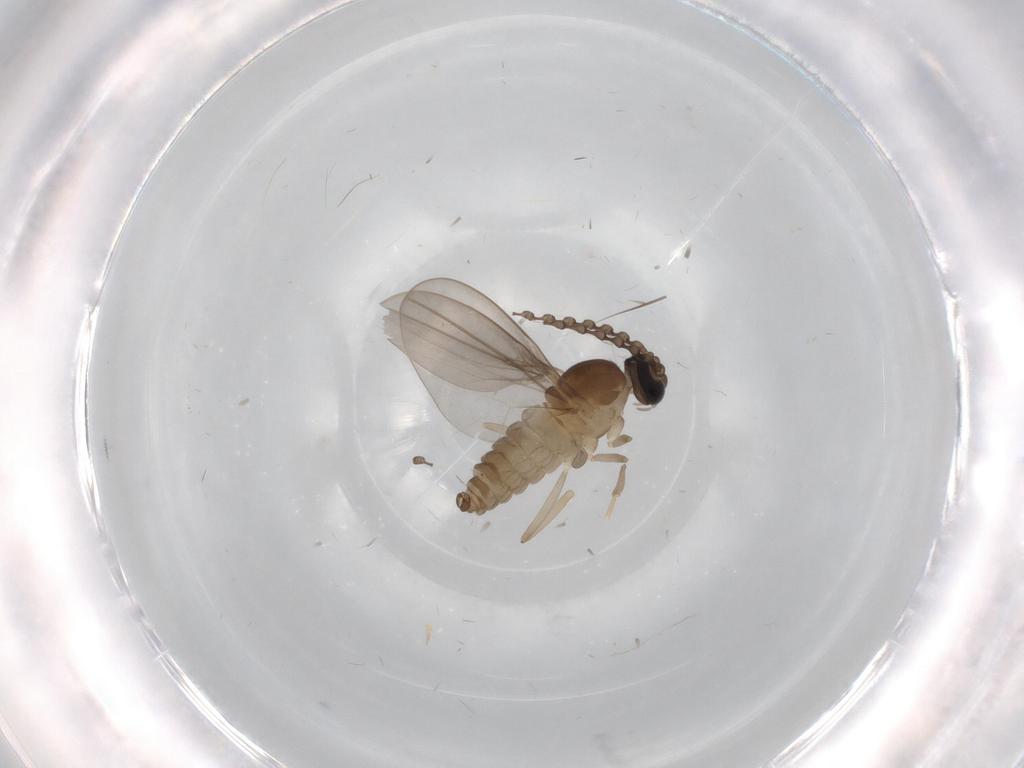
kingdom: Animalia
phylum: Arthropoda
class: Insecta
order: Diptera
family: Cecidomyiidae
